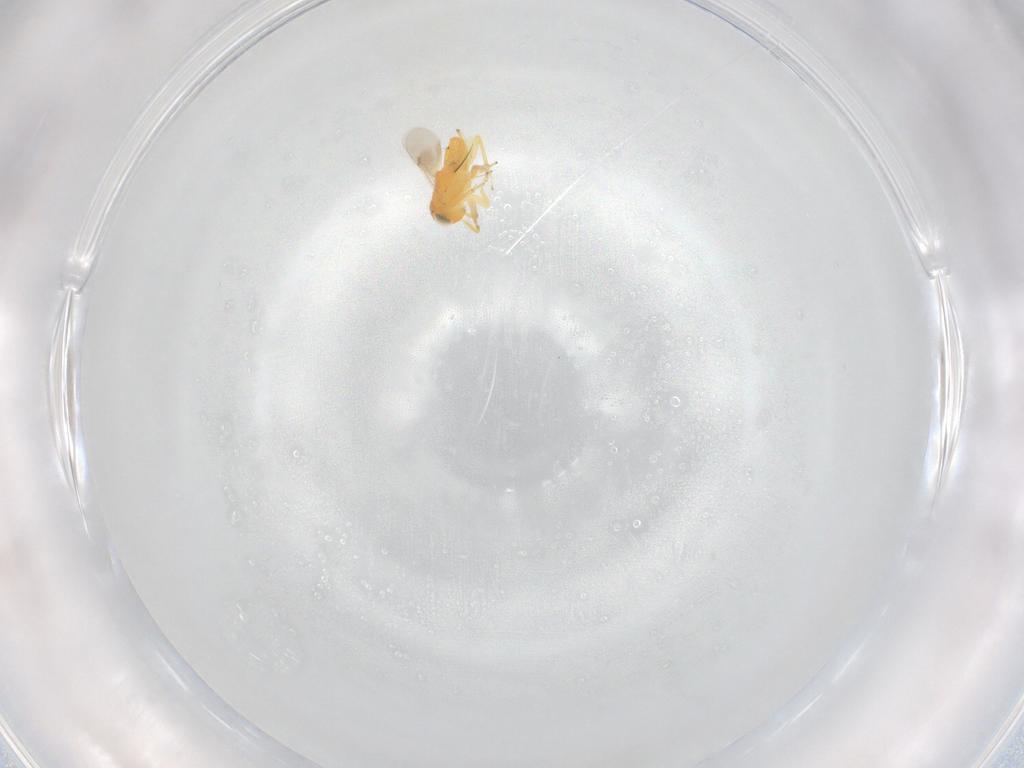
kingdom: Animalia
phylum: Arthropoda
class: Insecta
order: Hymenoptera
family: Encyrtidae
